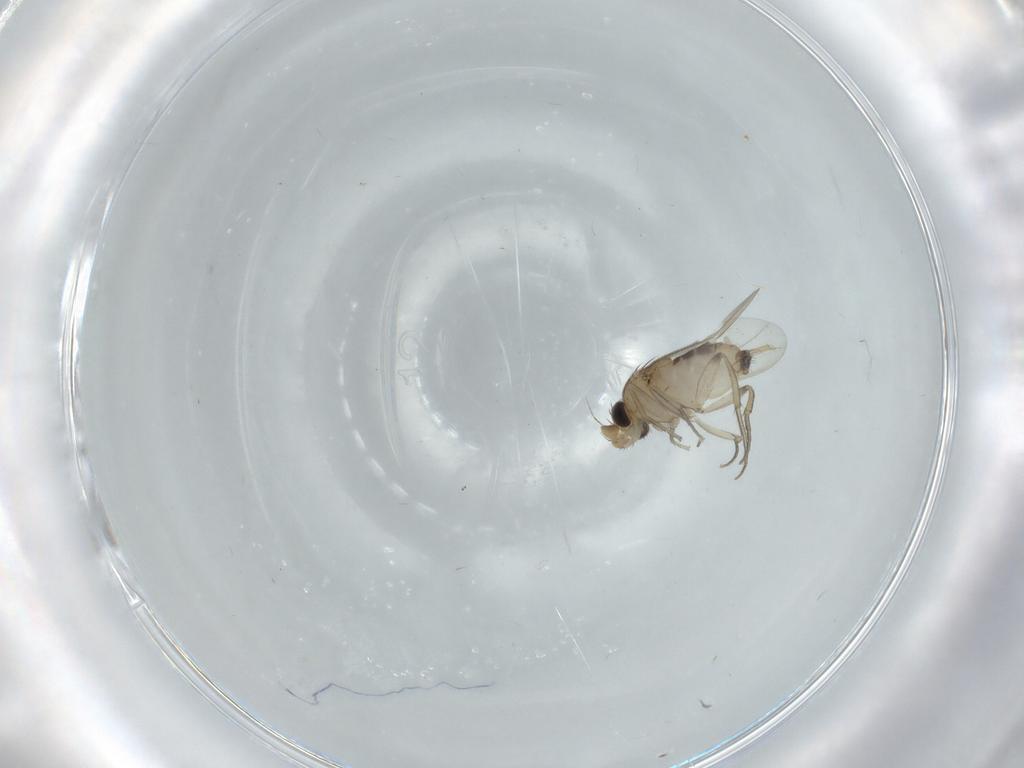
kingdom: Animalia
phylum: Arthropoda
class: Insecta
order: Diptera
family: Phoridae
